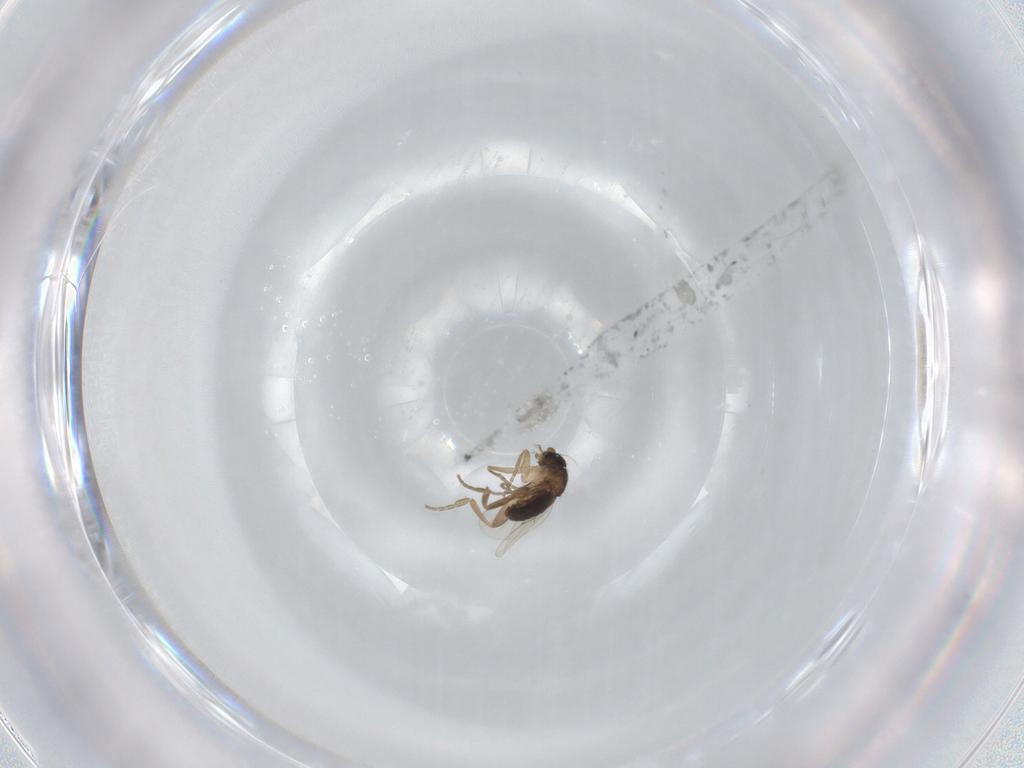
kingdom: Animalia
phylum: Arthropoda
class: Insecta
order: Diptera
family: Phoridae
